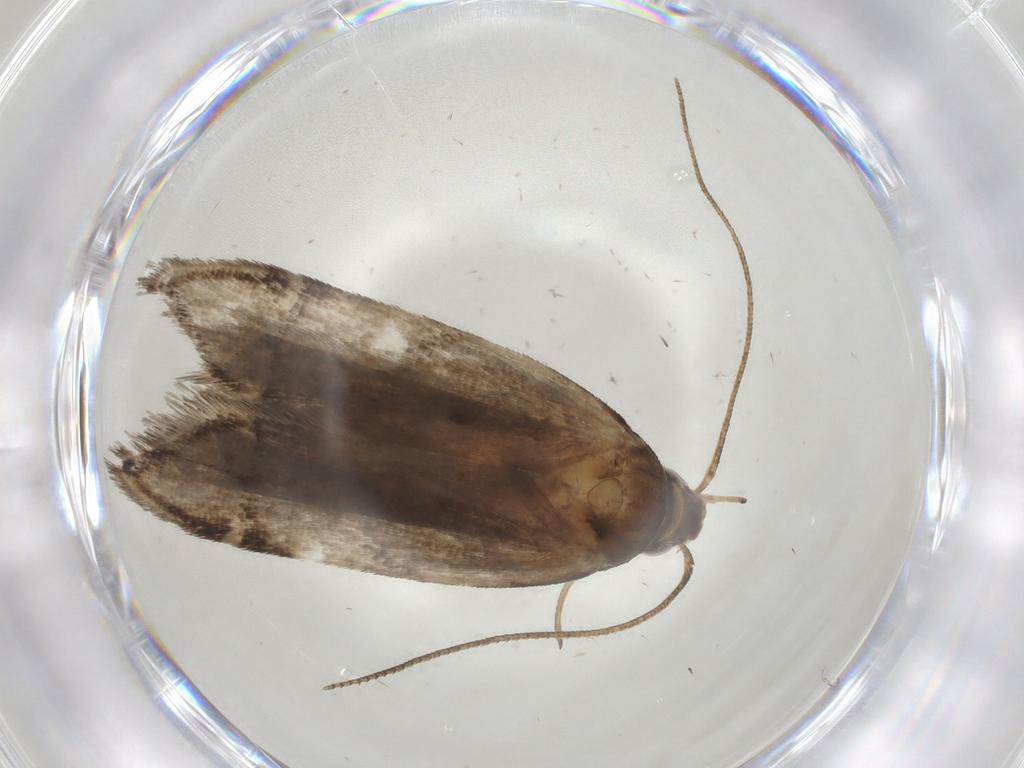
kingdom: Animalia
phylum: Arthropoda
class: Insecta
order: Lepidoptera
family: Gelechiidae
